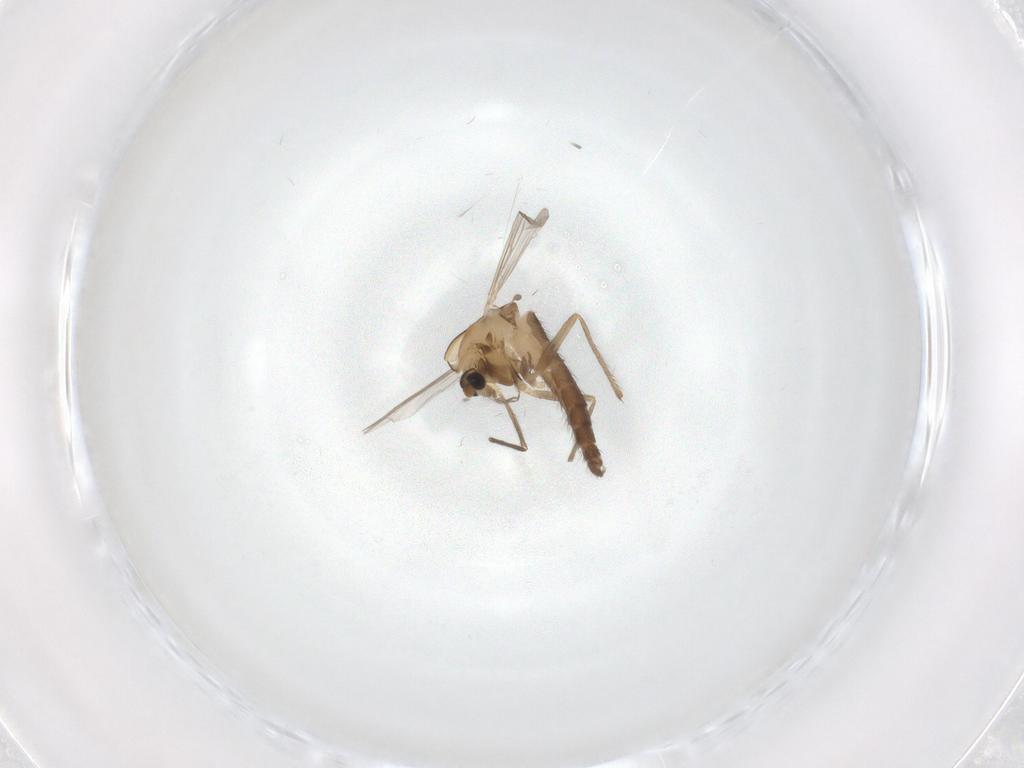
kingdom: Animalia
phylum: Arthropoda
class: Insecta
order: Diptera
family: Chironomidae
